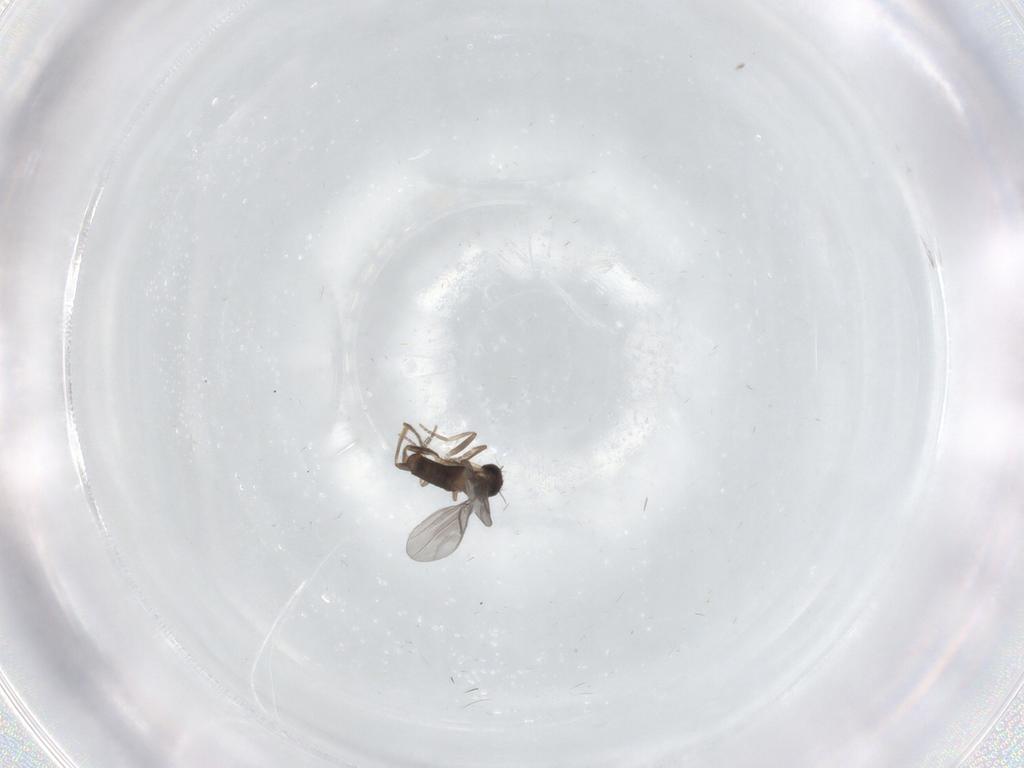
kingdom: Animalia
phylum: Arthropoda
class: Insecta
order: Diptera
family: Chironomidae
